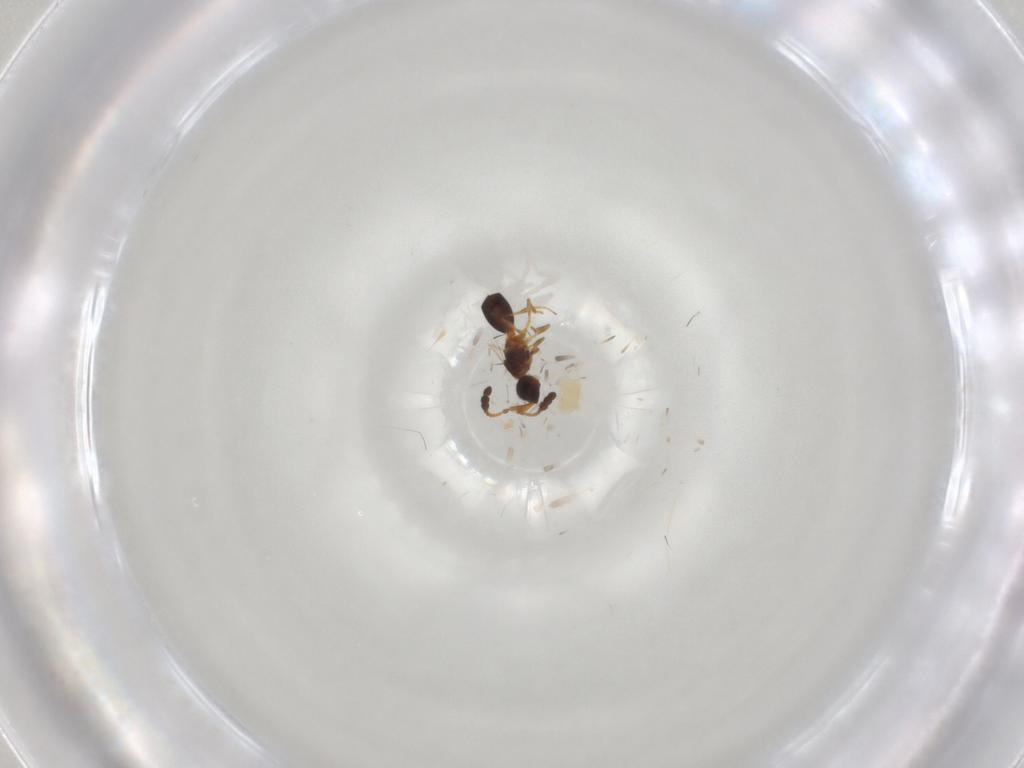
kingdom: Animalia
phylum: Arthropoda
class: Insecta
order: Hymenoptera
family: Diapriidae
